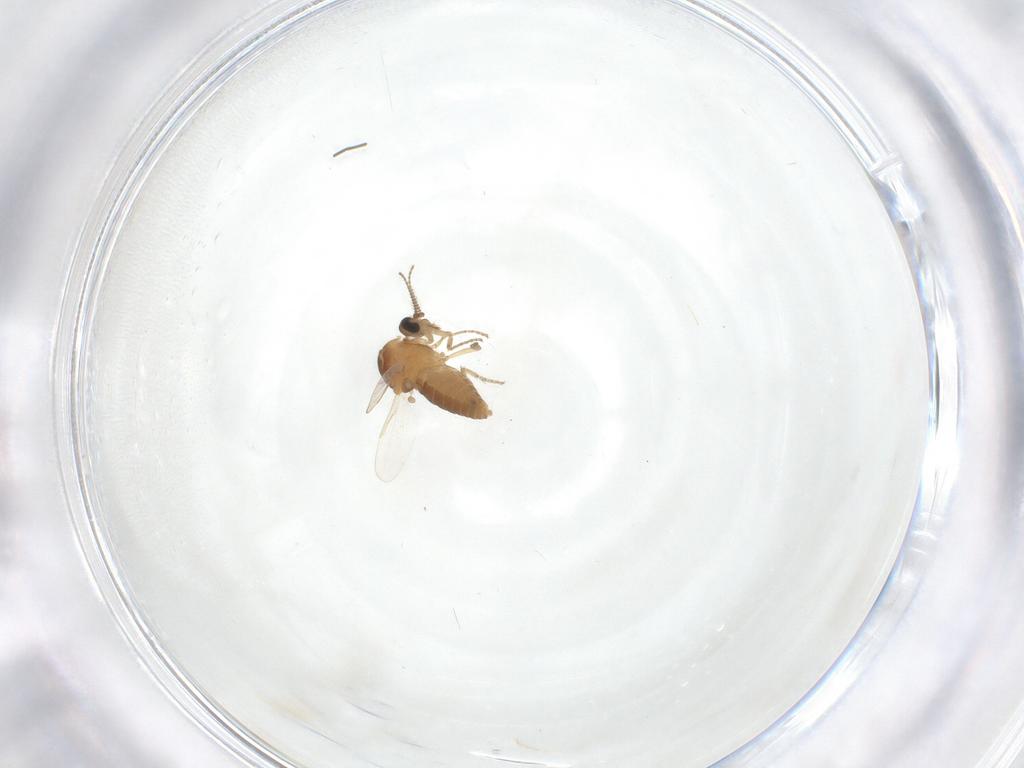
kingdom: Animalia
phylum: Arthropoda
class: Insecta
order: Diptera
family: Ceratopogonidae
